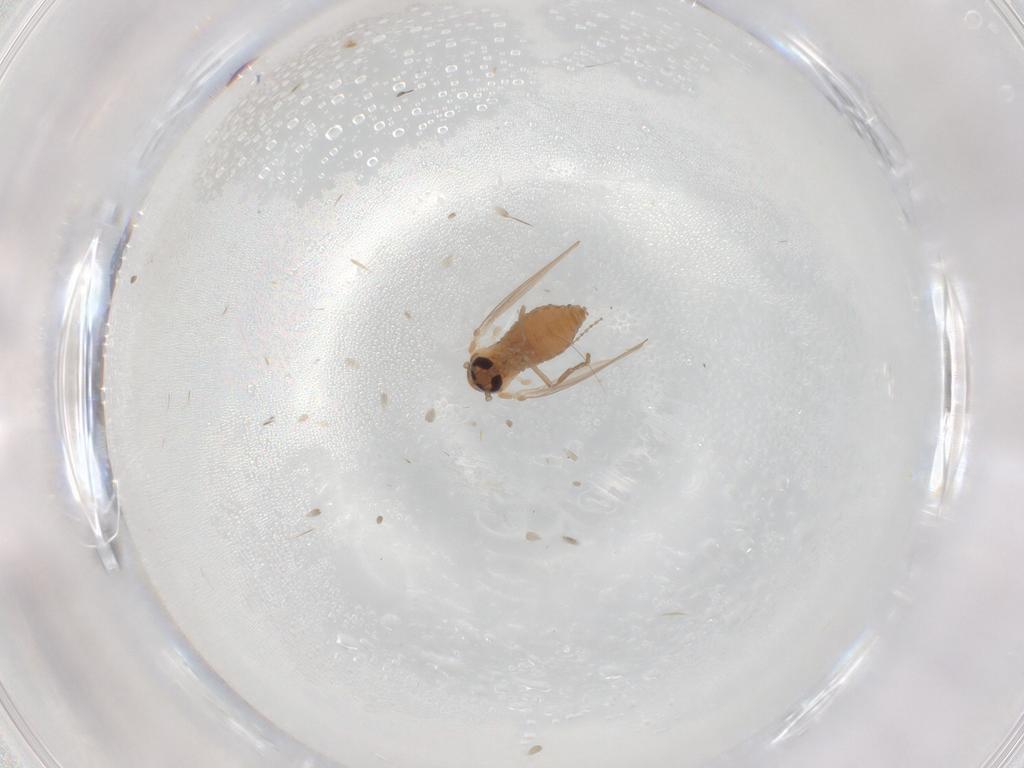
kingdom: Animalia
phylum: Arthropoda
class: Insecta
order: Diptera
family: Psychodidae
